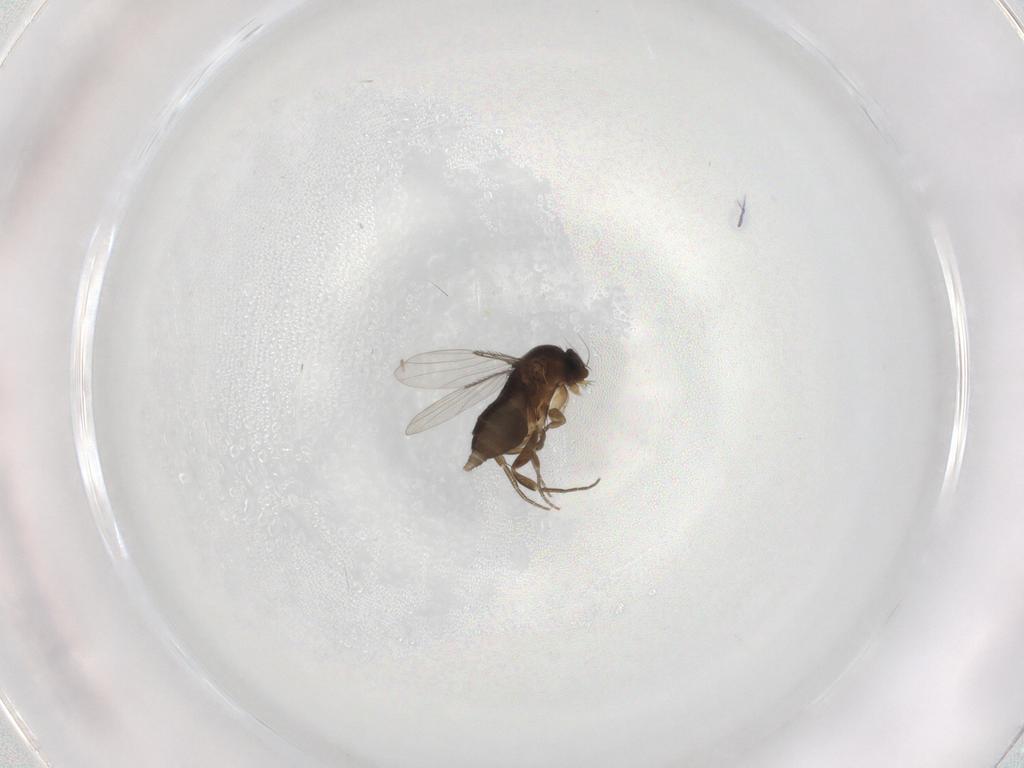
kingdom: Animalia
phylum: Arthropoda
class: Insecta
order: Diptera
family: Phoridae
